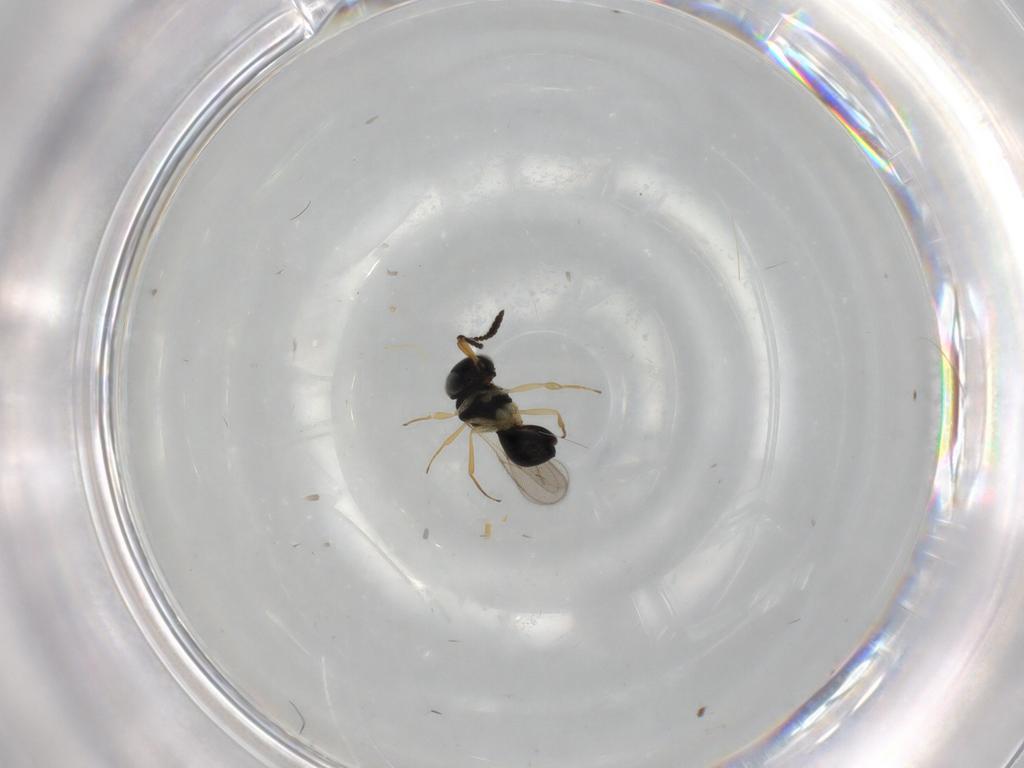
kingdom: Animalia
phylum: Arthropoda
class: Insecta
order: Hymenoptera
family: Scelionidae
